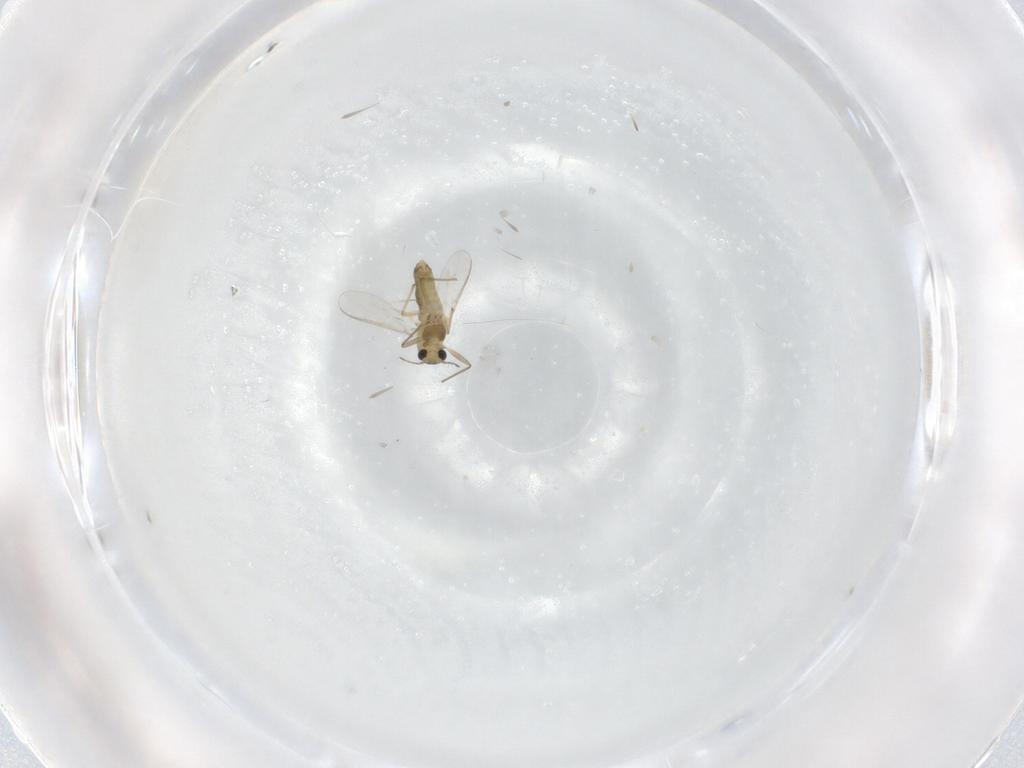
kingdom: Animalia
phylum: Arthropoda
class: Insecta
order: Diptera
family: Chironomidae
